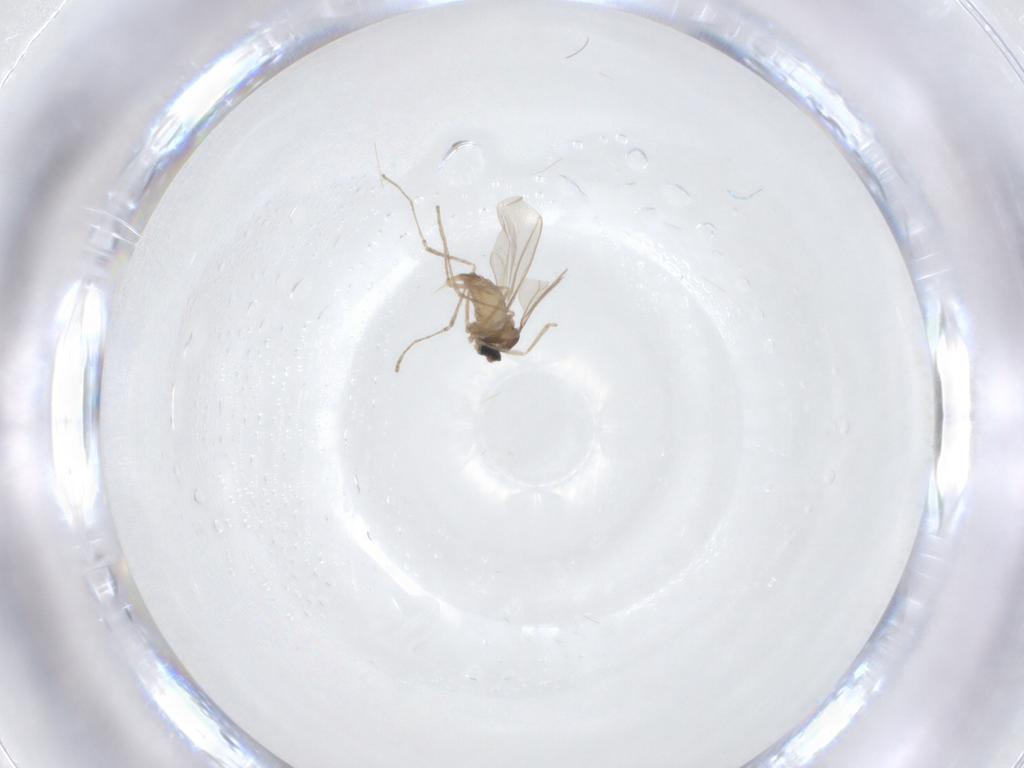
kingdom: Animalia
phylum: Arthropoda
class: Insecta
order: Diptera
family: Cecidomyiidae
